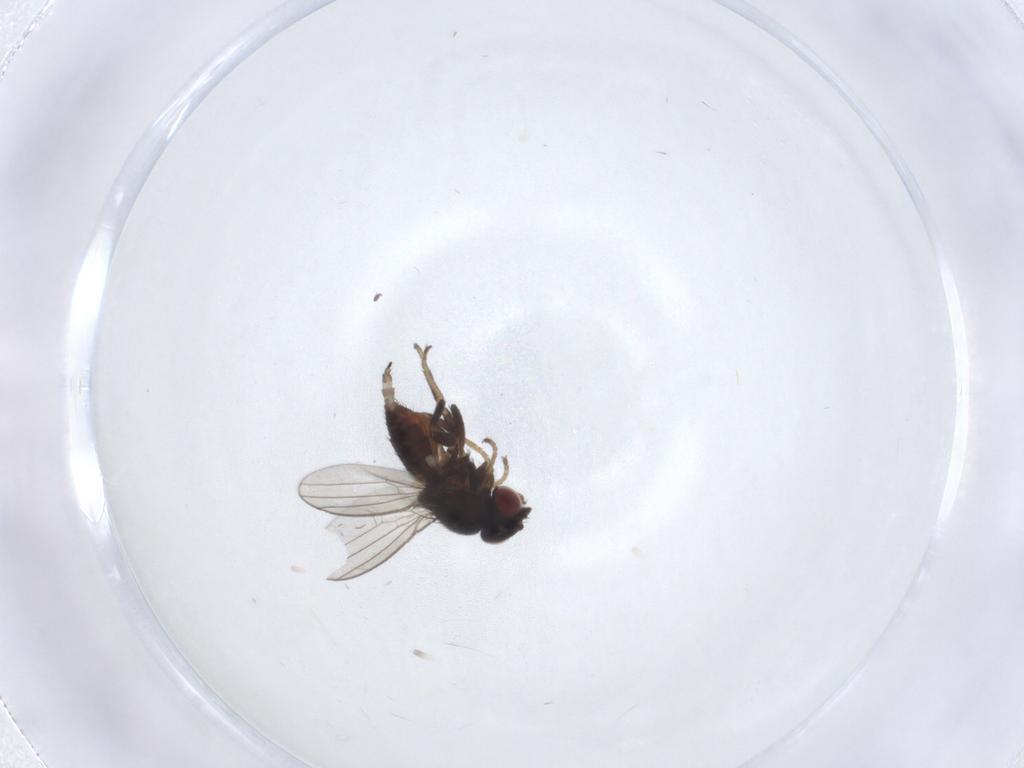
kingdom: Animalia
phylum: Arthropoda
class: Insecta
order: Diptera
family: Milichiidae
